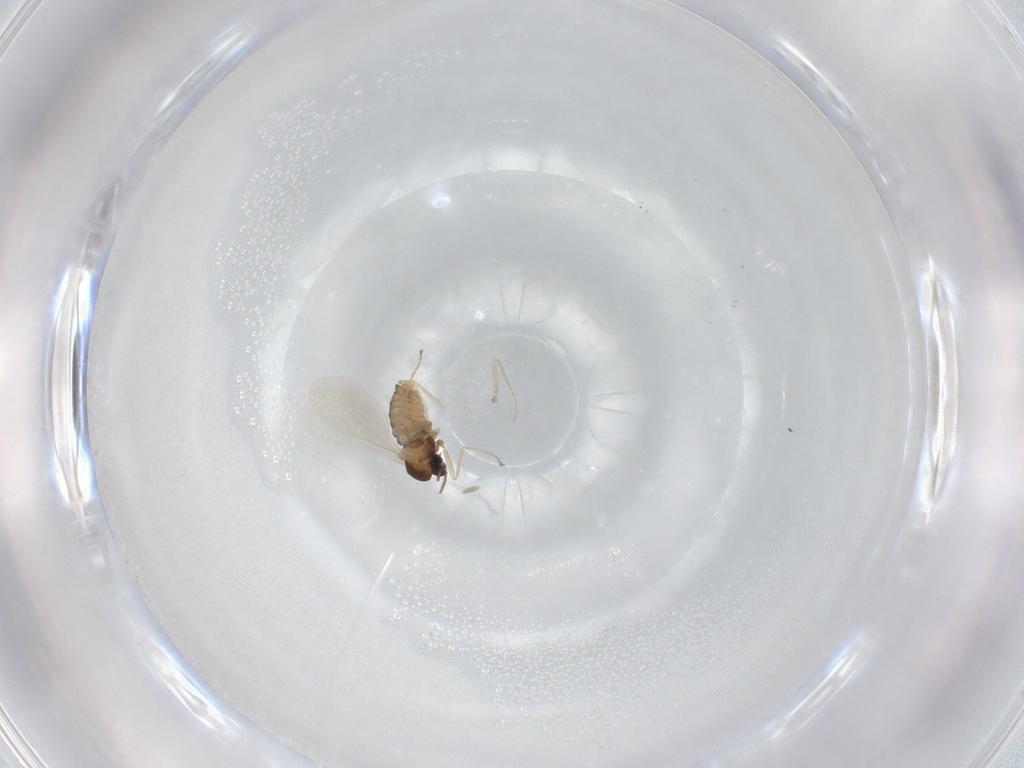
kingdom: Animalia
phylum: Arthropoda
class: Insecta
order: Diptera
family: Cecidomyiidae
